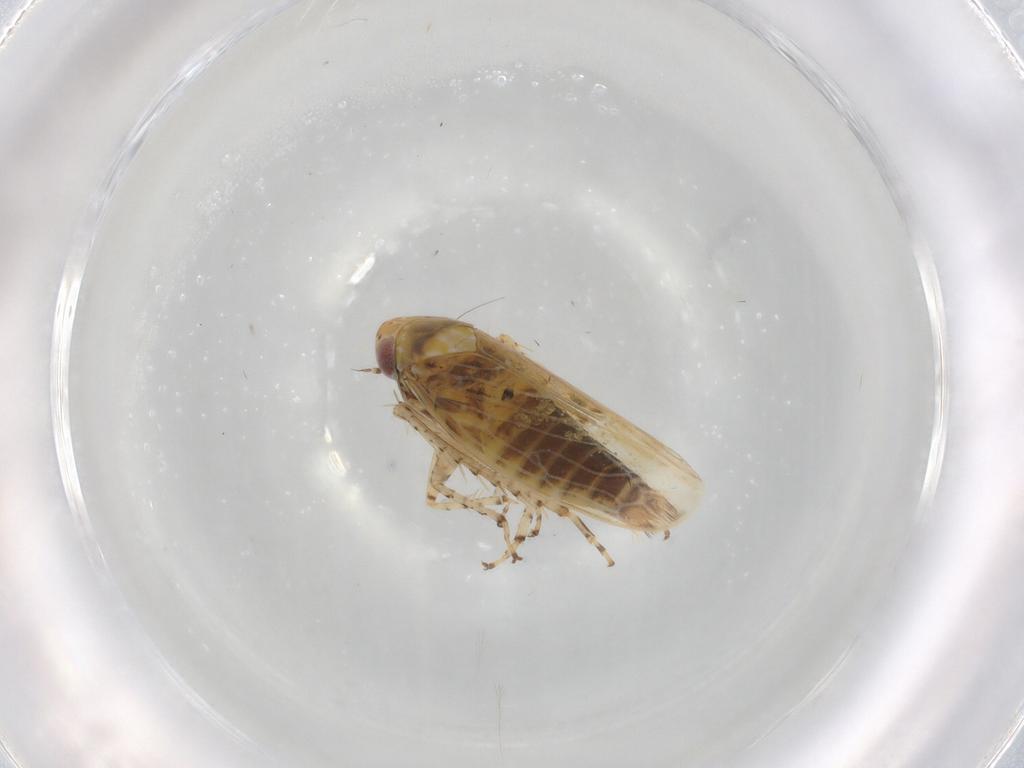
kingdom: Animalia
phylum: Arthropoda
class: Insecta
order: Hemiptera
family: Cicadellidae
